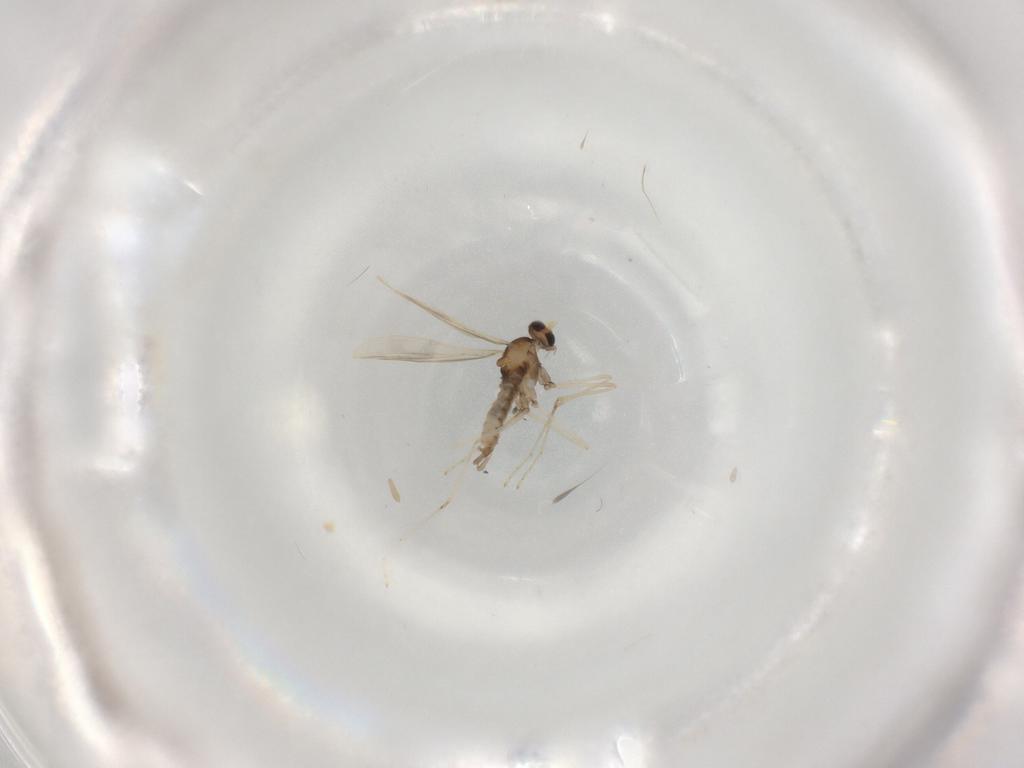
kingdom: Animalia
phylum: Arthropoda
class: Insecta
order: Diptera
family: Cecidomyiidae
